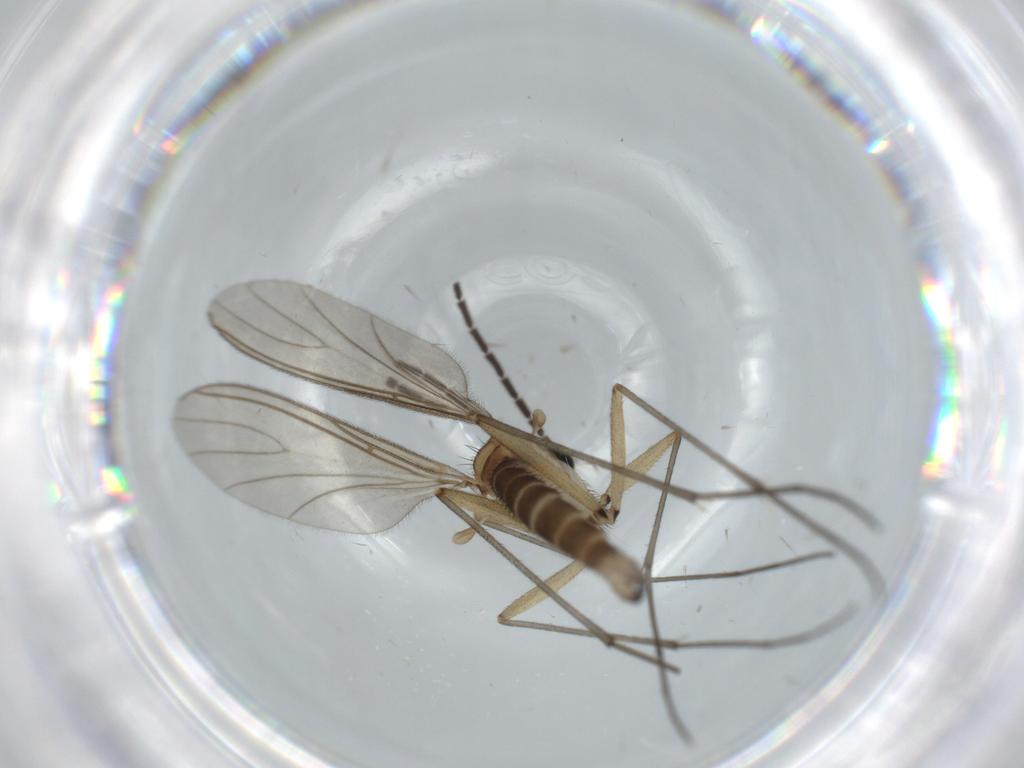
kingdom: Animalia
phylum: Arthropoda
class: Insecta
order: Diptera
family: Sciaridae
